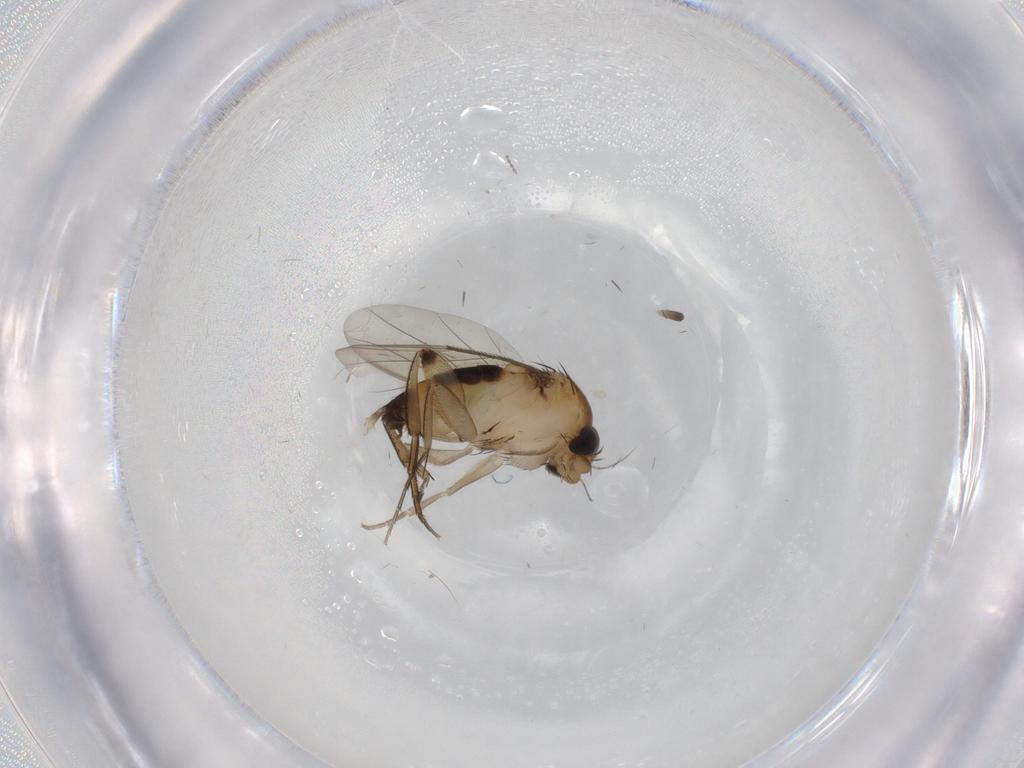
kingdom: Animalia
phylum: Arthropoda
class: Insecta
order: Diptera
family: Phoridae
